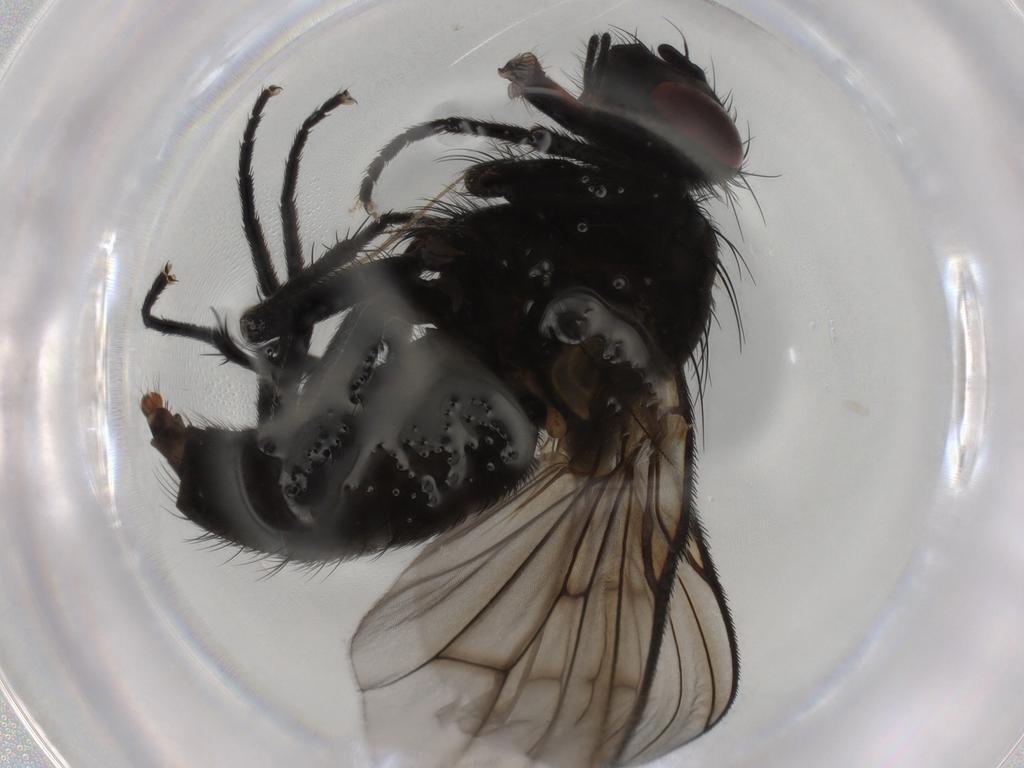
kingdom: Animalia
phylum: Arthropoda
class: Insecta
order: Diptera
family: Muscidae
